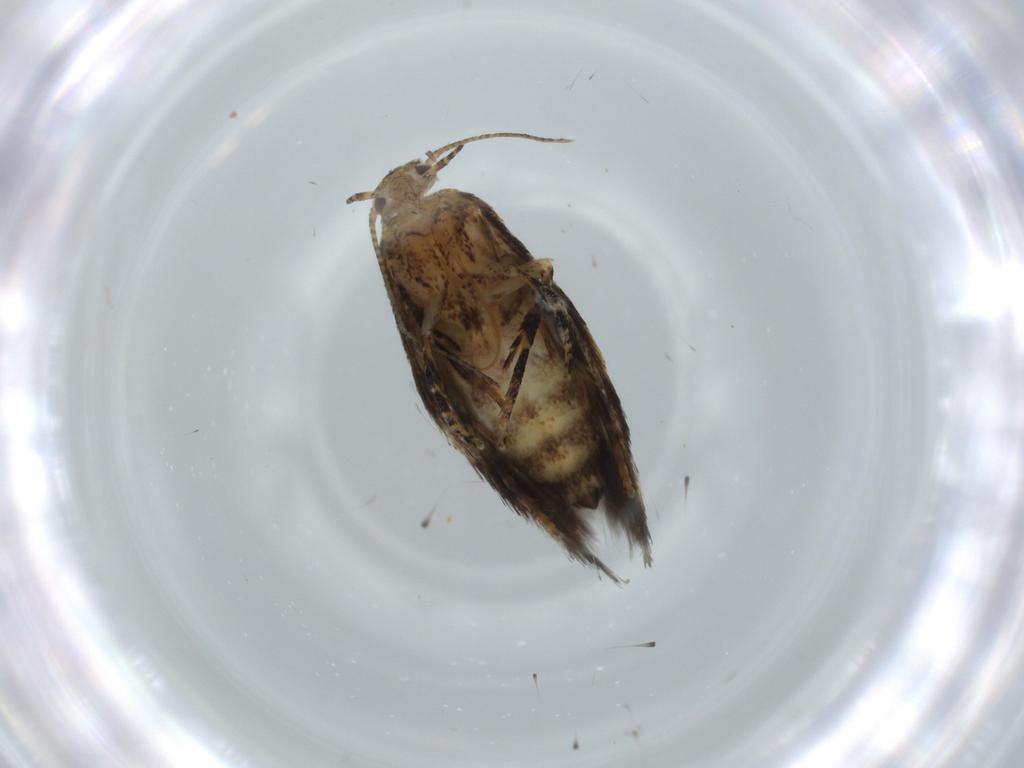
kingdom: Animalia
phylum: Arthropoda
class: Insecta
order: Lepidoptera
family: Gelechiidae
